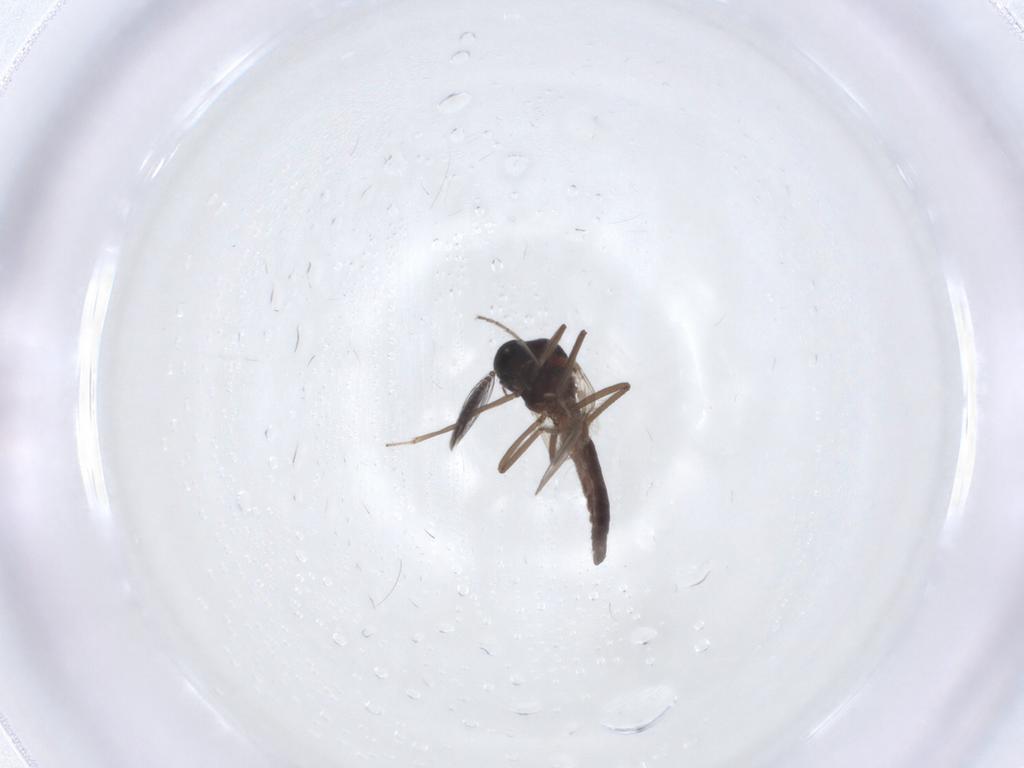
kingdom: Animalia
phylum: Arthropoda
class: Insecta
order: Diptera
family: Ceratopogonidae
